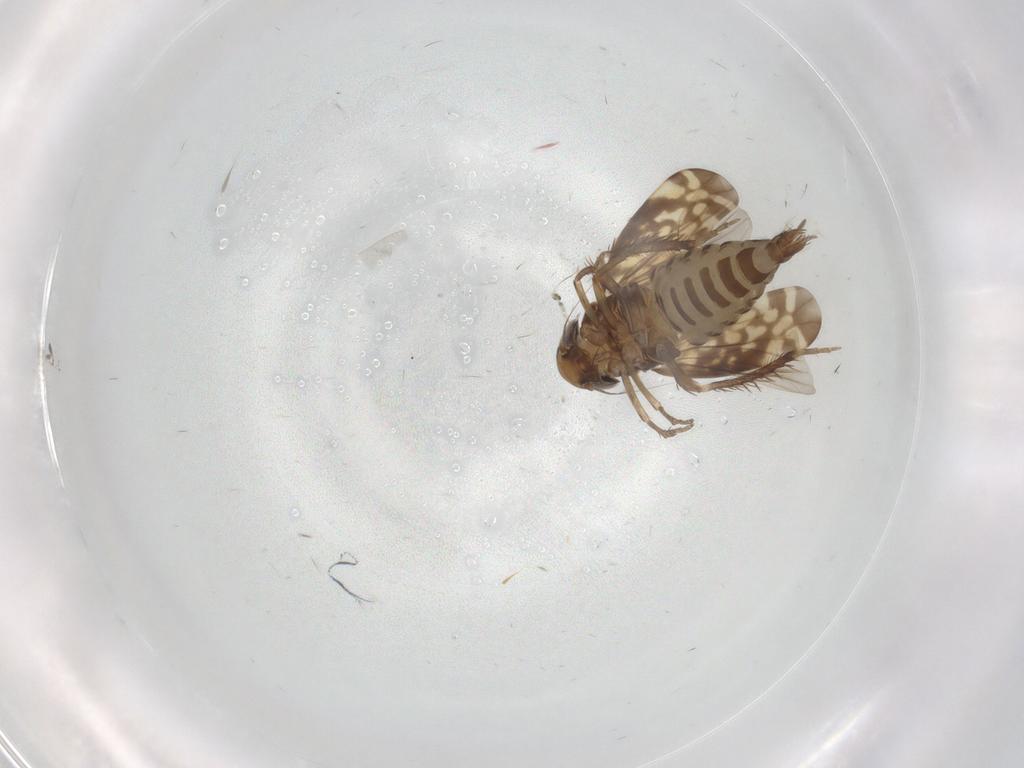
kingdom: Animalia
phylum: Arthropoda
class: Insecta
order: Hemiptera
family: Cicadellidae
